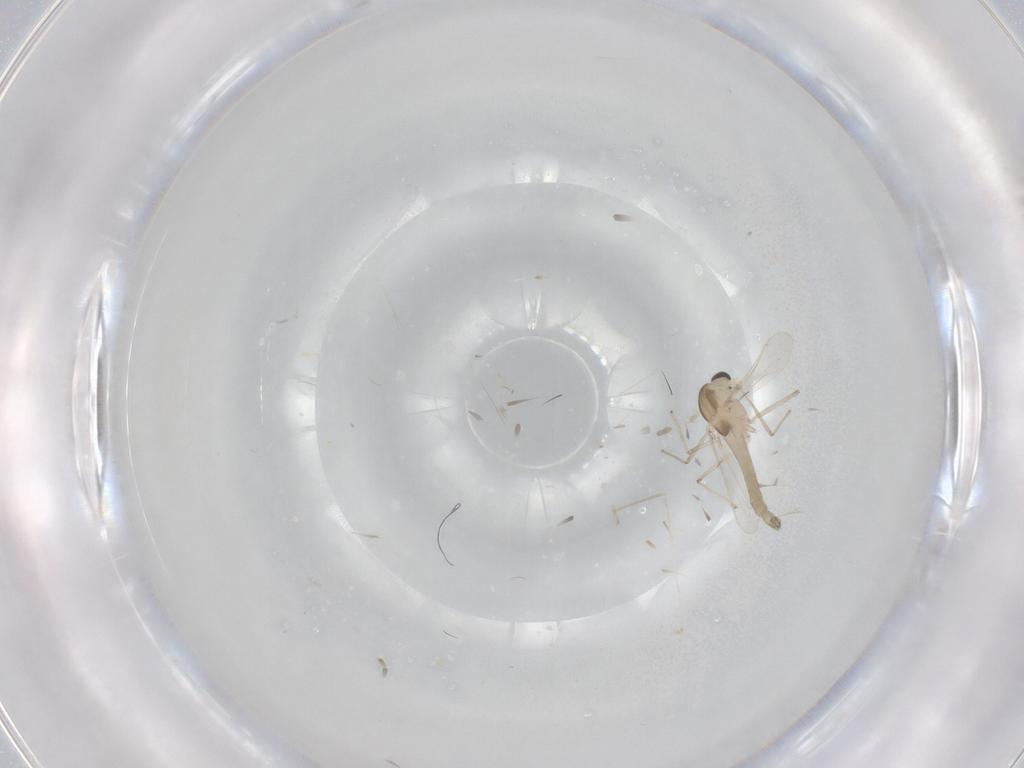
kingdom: Animalia
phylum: Arthropoda
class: Insecta
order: Diptera
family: Cecidomyiidae
